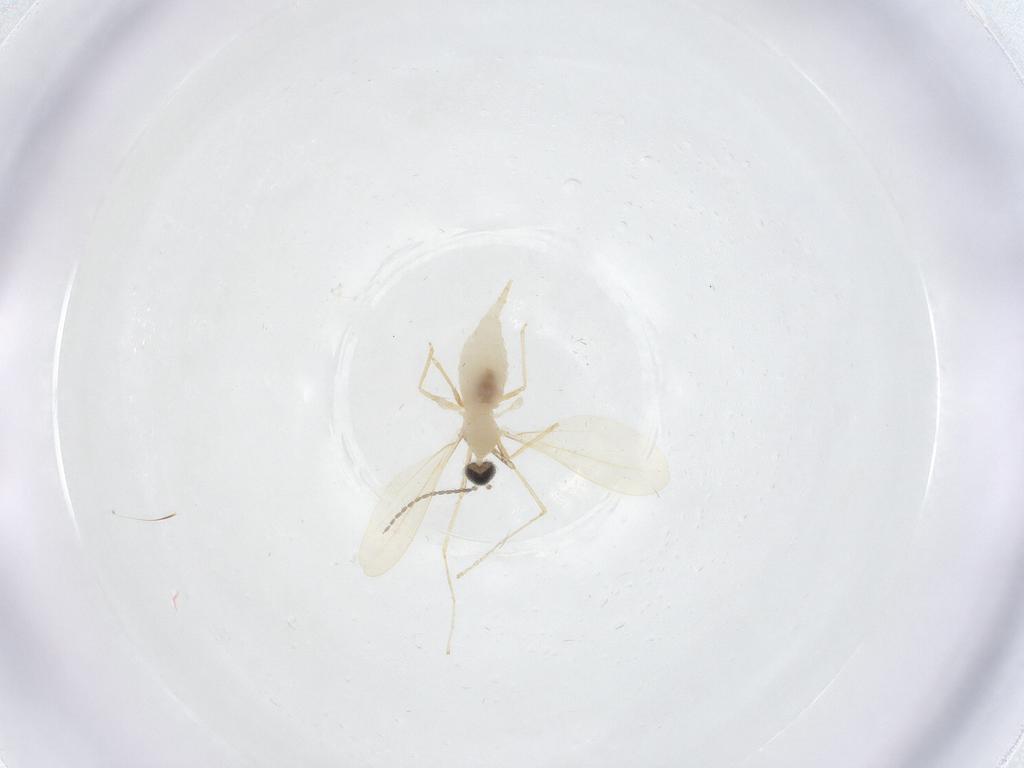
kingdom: Animalia
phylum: Arthropoda
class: Insecta
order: Diptera
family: Cecidomyiidae
